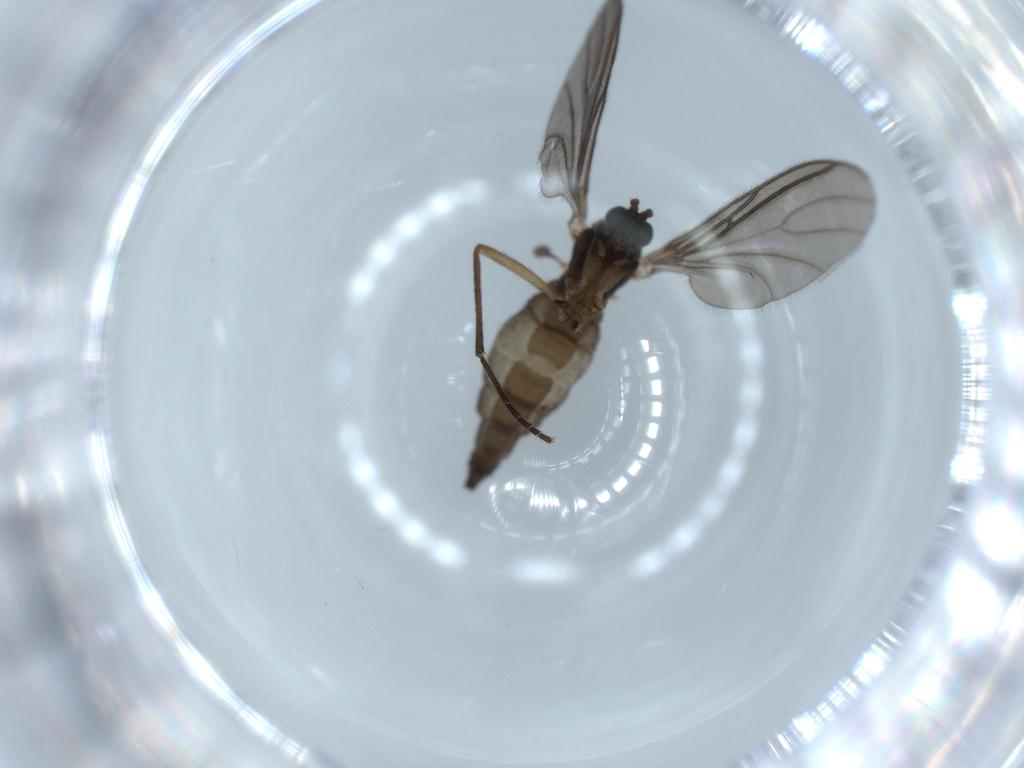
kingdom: Animalia
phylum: Arthropoda
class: Insecta
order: Diptera
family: Sciaridae
